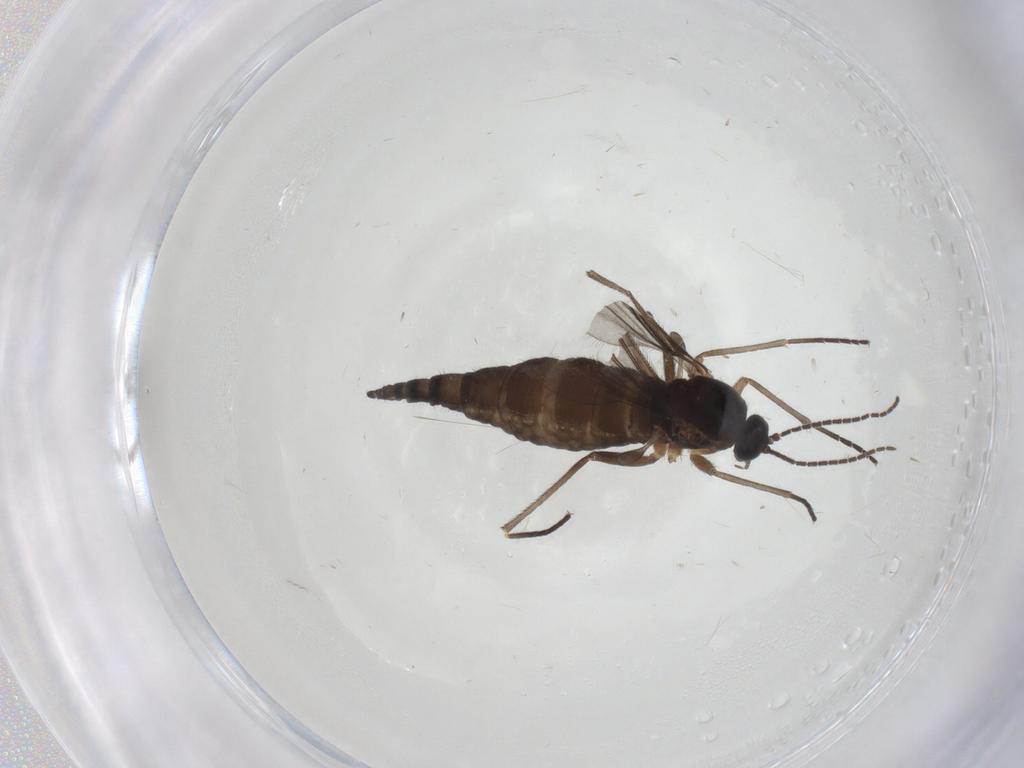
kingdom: Animalia
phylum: Arthropoda
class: Insecta
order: Diptera
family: Sciaridae
